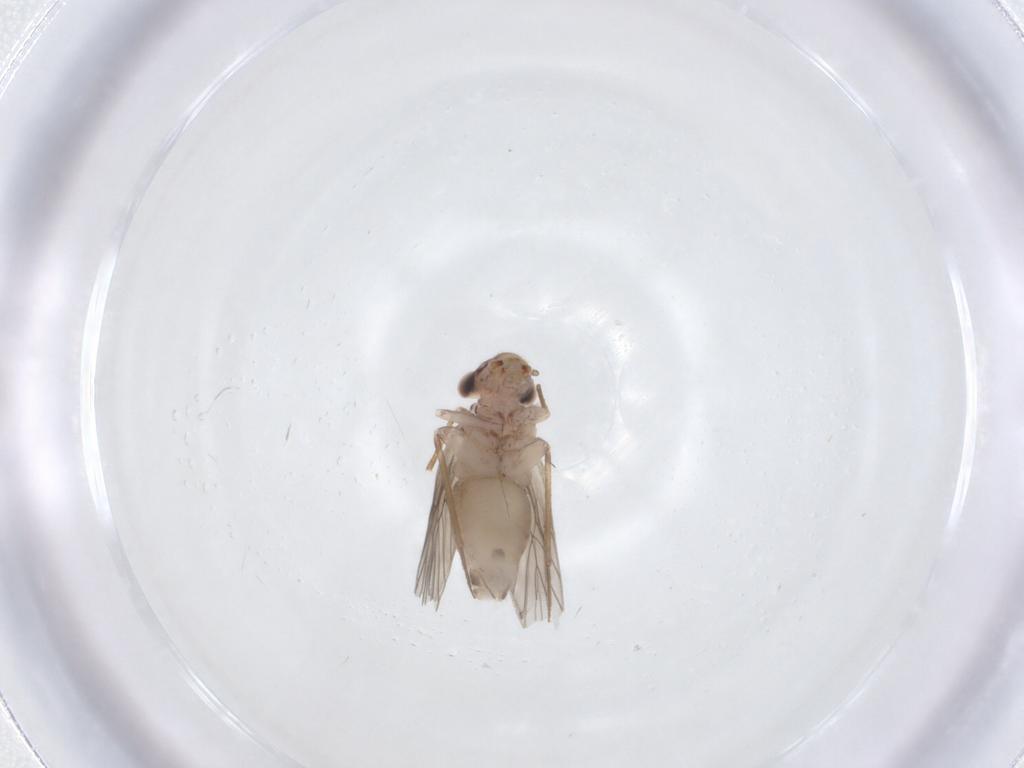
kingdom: Animalia
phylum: Arthropoda
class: Insecta
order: Psocodea
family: Lepidopsocidae
